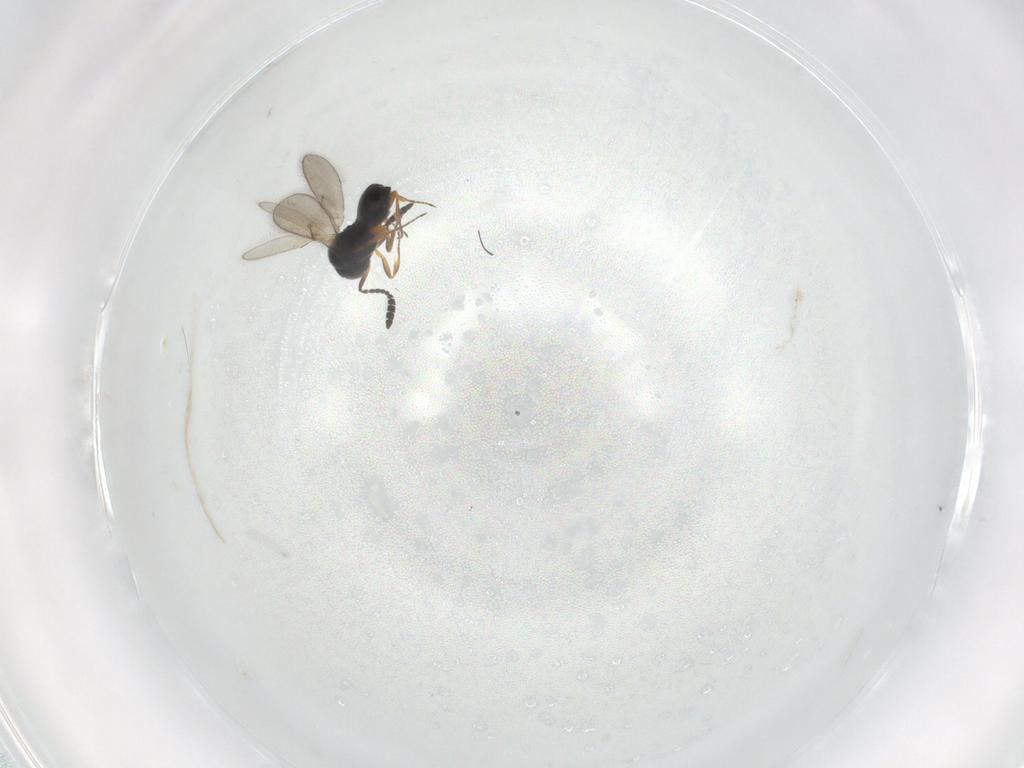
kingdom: Animalia
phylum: Arthropoda
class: Insecta
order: Hymenoptera
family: Scelionidae
